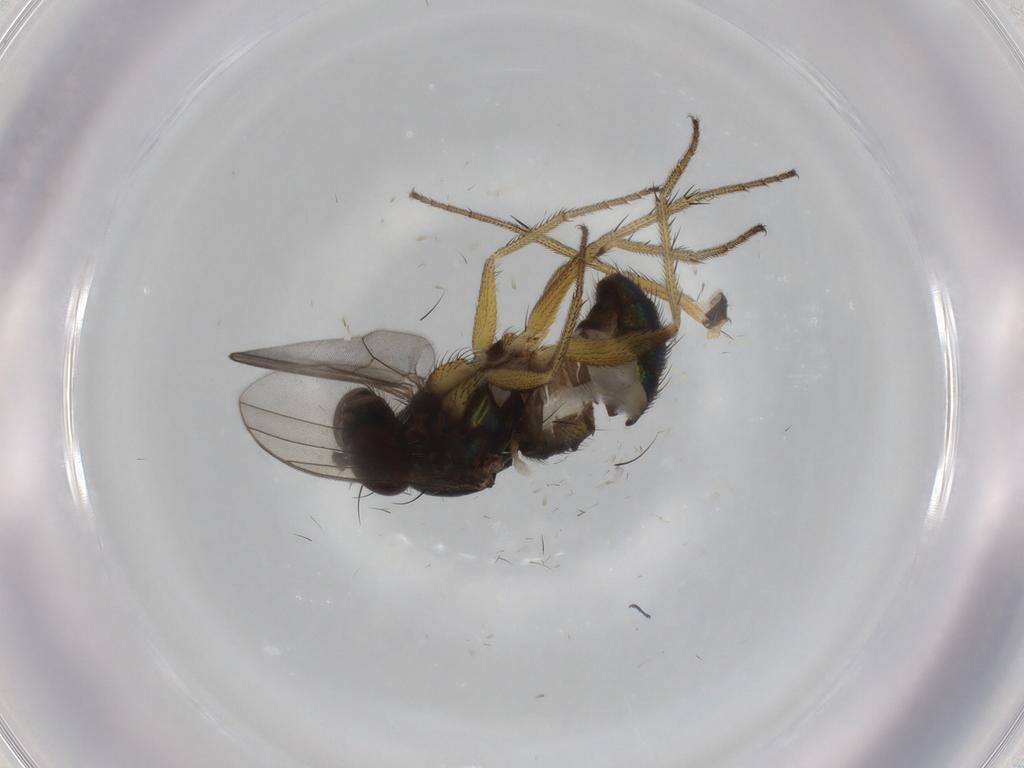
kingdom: Animalia
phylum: Arthropoda
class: Insecta
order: Diptera
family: Dolichopodidae
